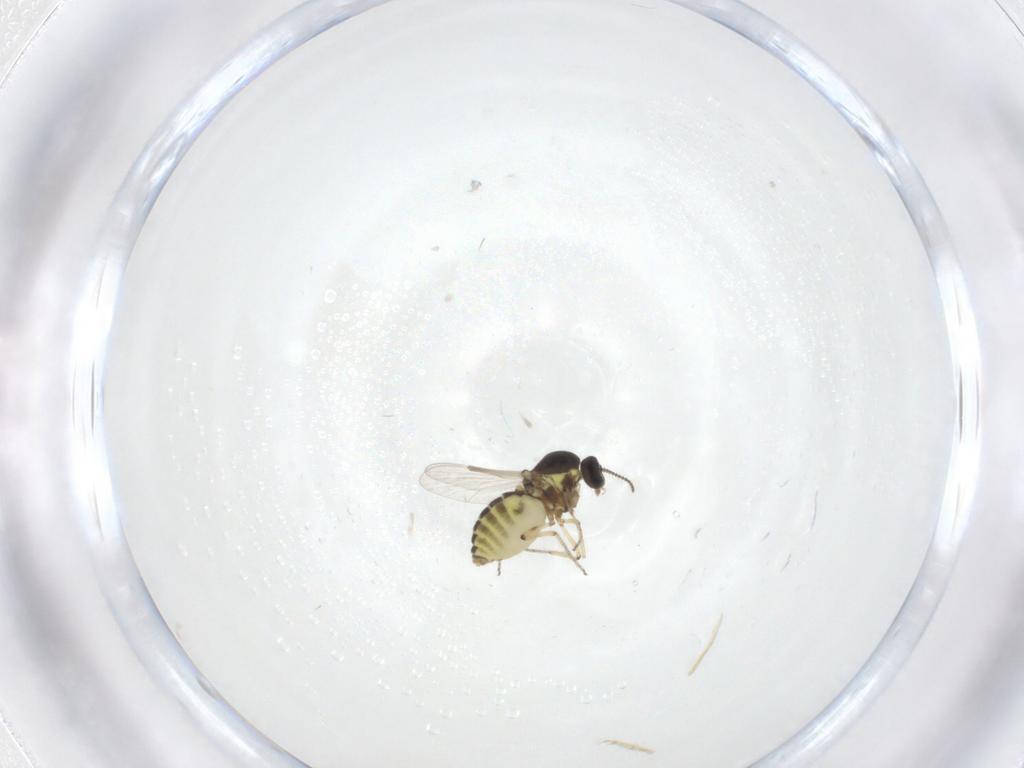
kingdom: Animalia
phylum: Arthropoda
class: Insecta
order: Diptera
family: Ceratopogonidae
